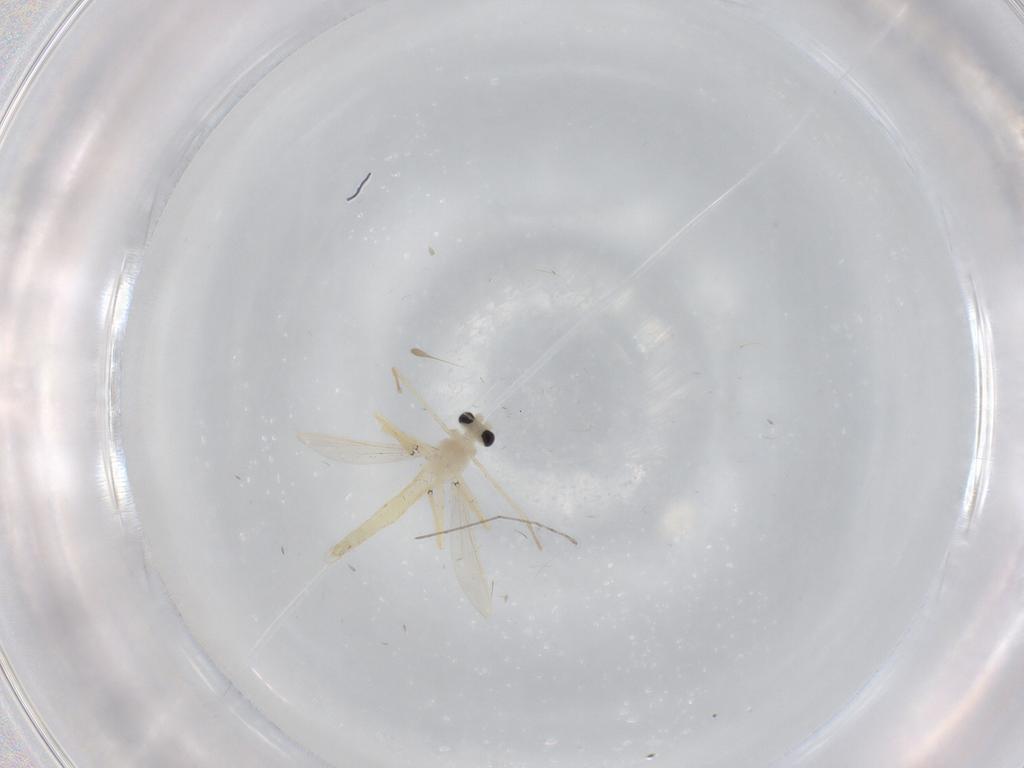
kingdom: Animalia
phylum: Arthropoda
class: Insecta
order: Diptera
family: Chironomidae
